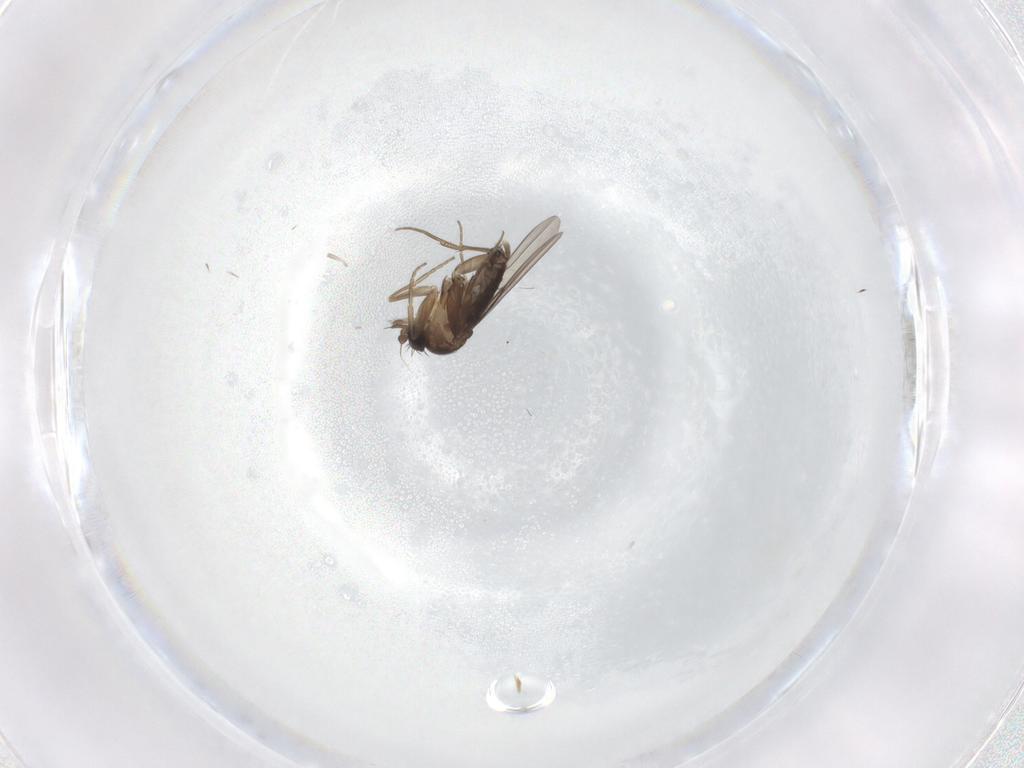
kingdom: Animalia
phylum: Arthropoda
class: Insecta
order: Diptera
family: Phoridae
